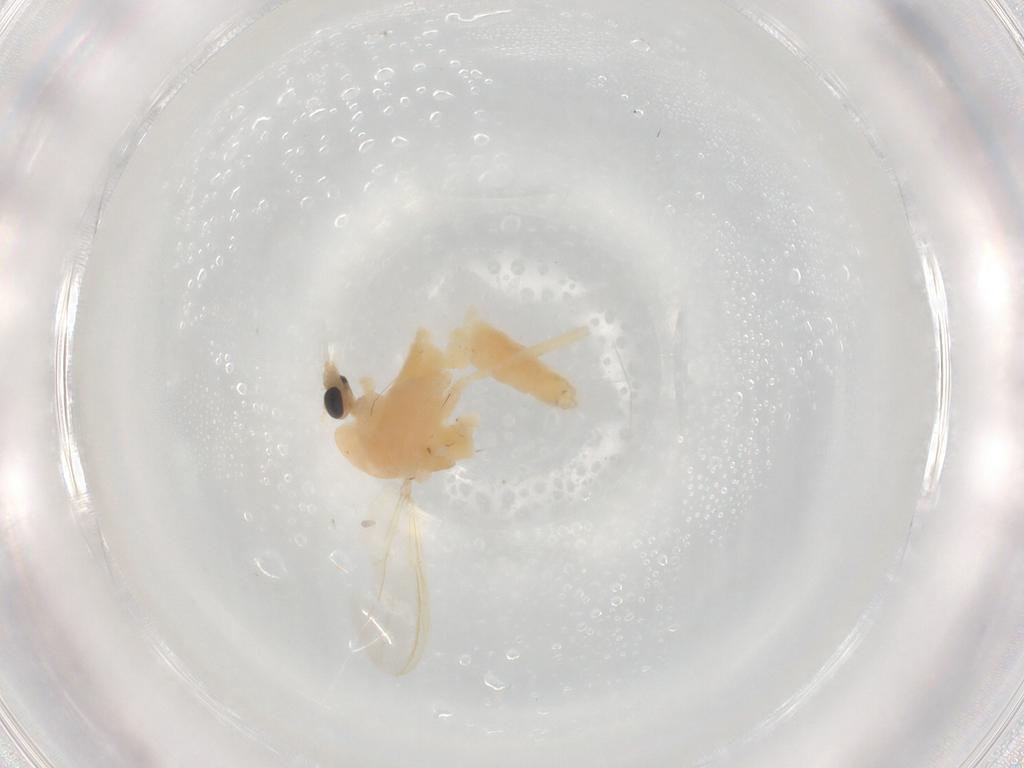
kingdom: Animalia
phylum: Arthropoda
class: Insecta
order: Diptera
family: Chironomidae
